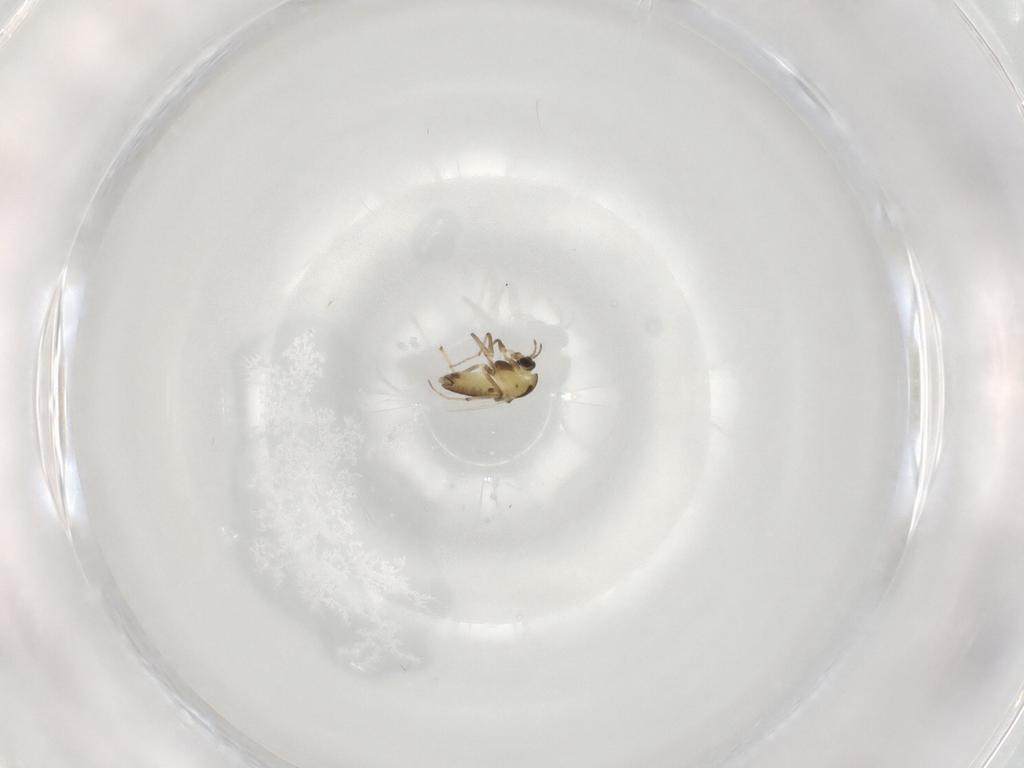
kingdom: Animalia
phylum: Arthropoda
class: Insecta
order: Diptera
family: Chironomidae
